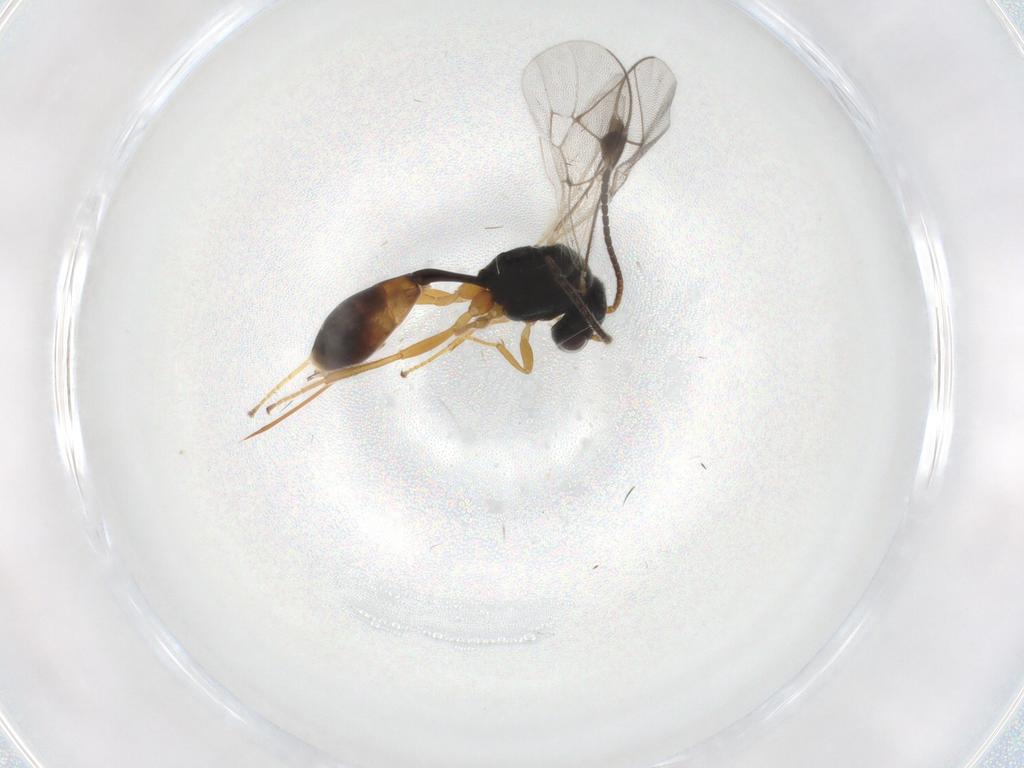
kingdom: Animalia
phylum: Arthropoda
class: Insecta
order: Hymenoptera
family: Ichneumonidae
